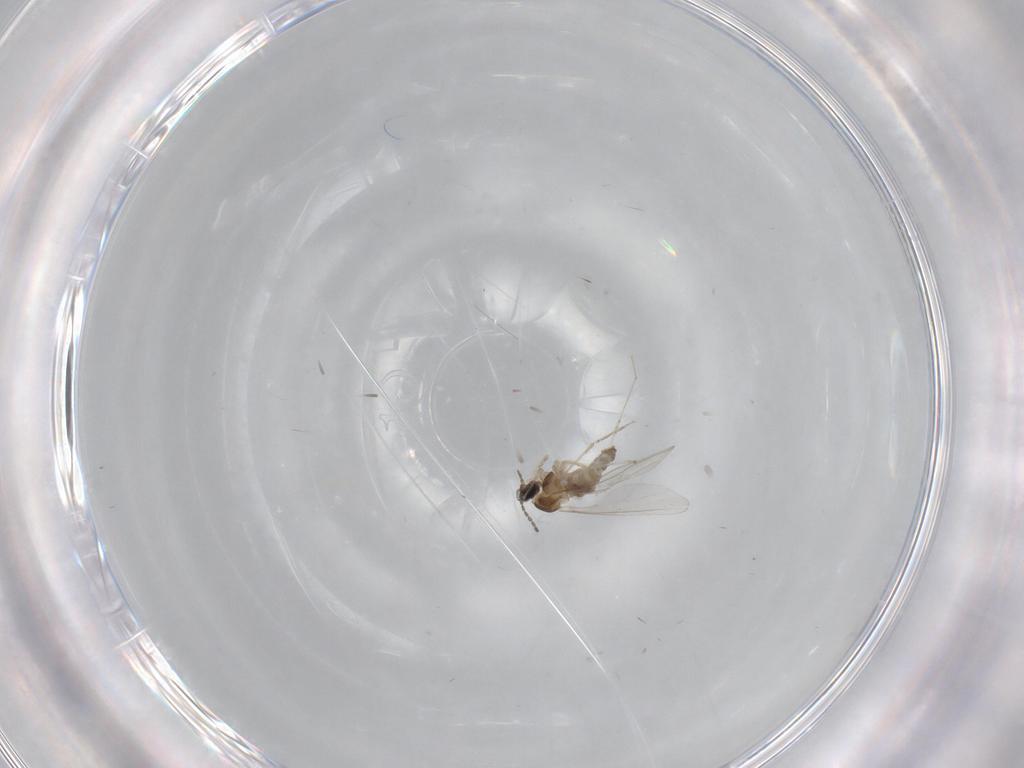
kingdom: Animalia
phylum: Arthropoda
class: Insecta
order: Diptera
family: Cecidomyiidae
